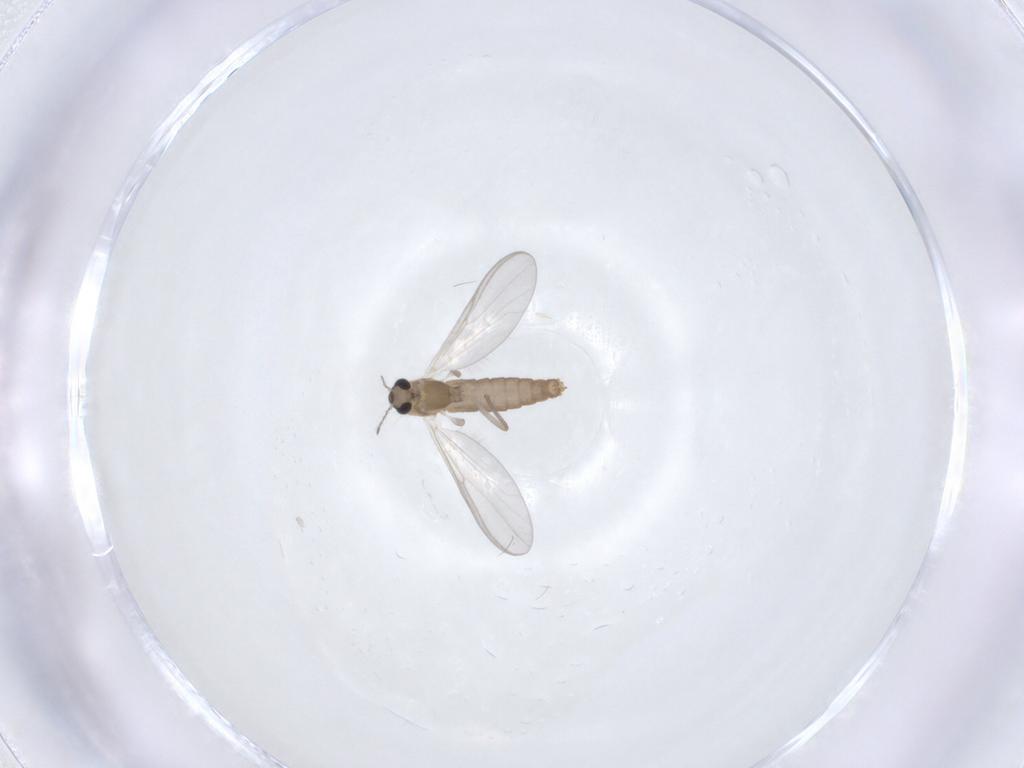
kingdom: Animalia
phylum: Arthropoda
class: Insecta
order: Diptera
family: Chironomidae
